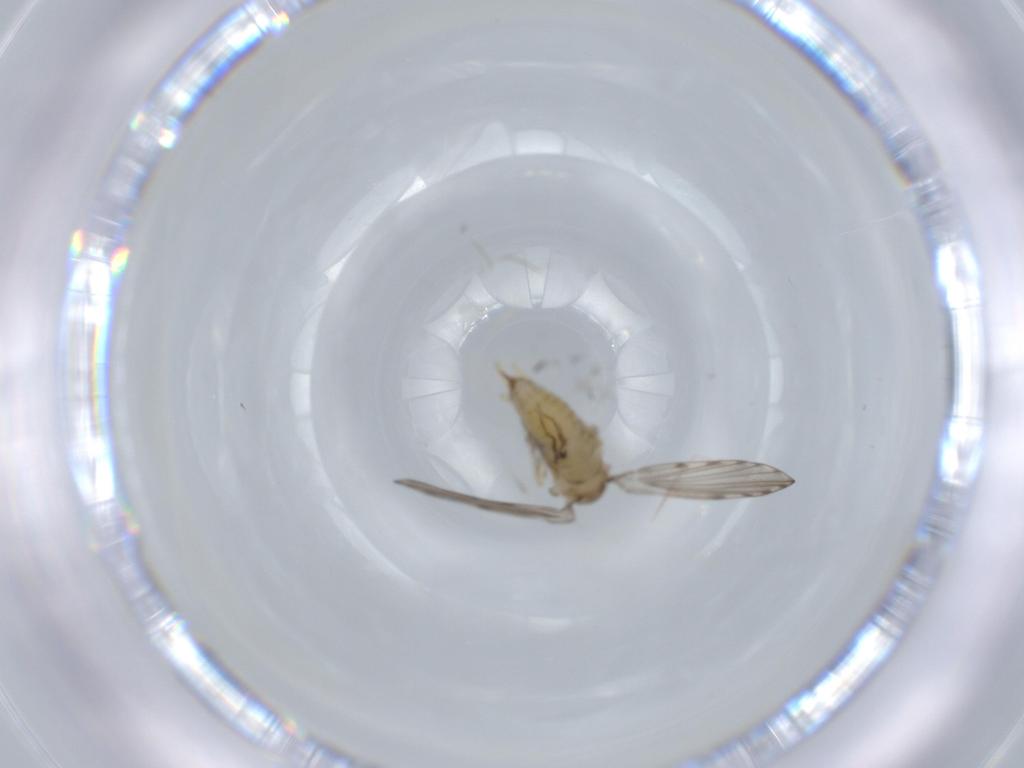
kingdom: Animalia
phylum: Arthropoda
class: Insecta
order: Diptera
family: Psychodidae
